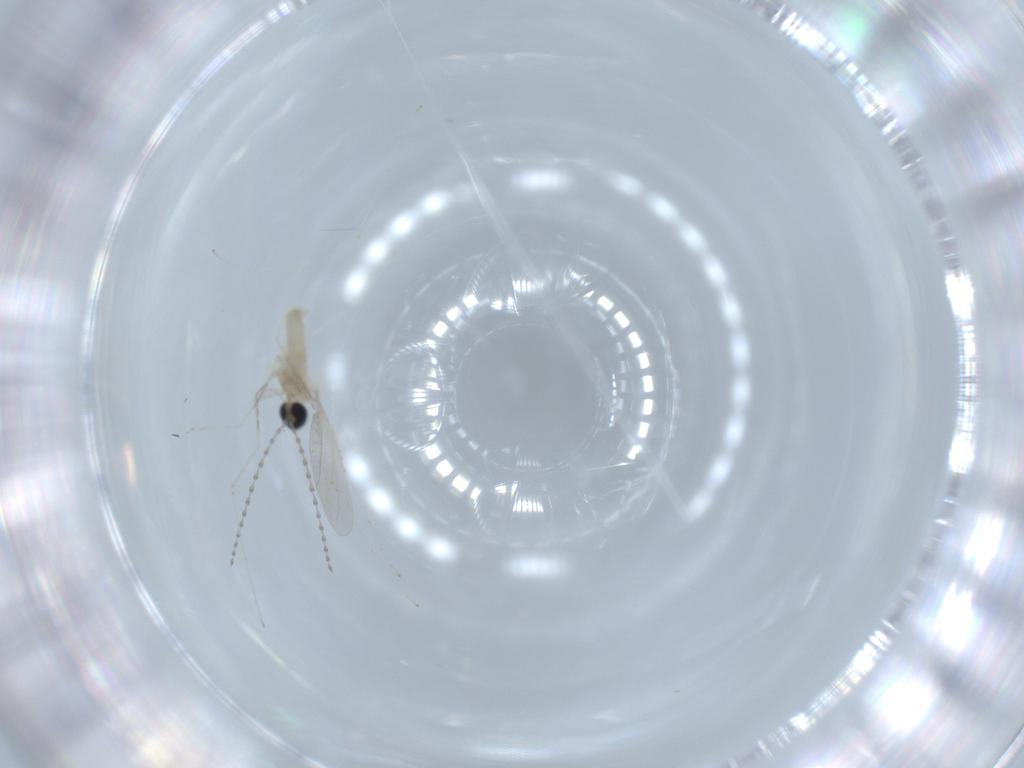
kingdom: Animalia
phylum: Arthropoda
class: Insecta
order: Diptera
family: Cecidomyiidae
